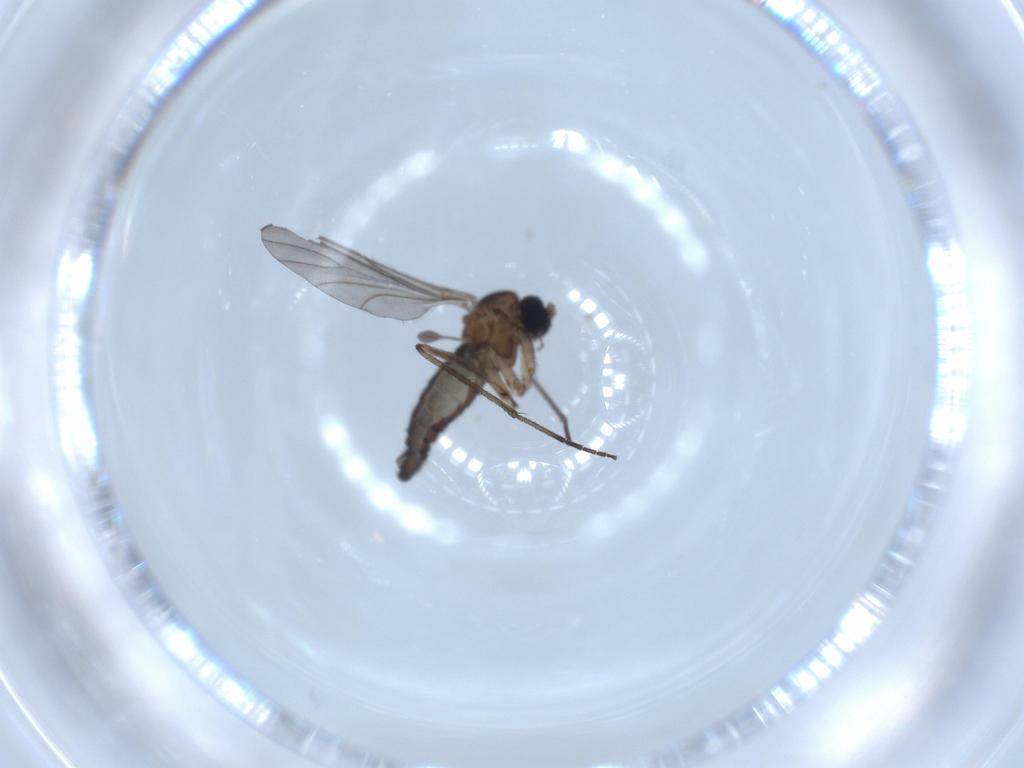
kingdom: Animalia
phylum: Arthropoda
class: Insecta
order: Diptera
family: Sciaridae
